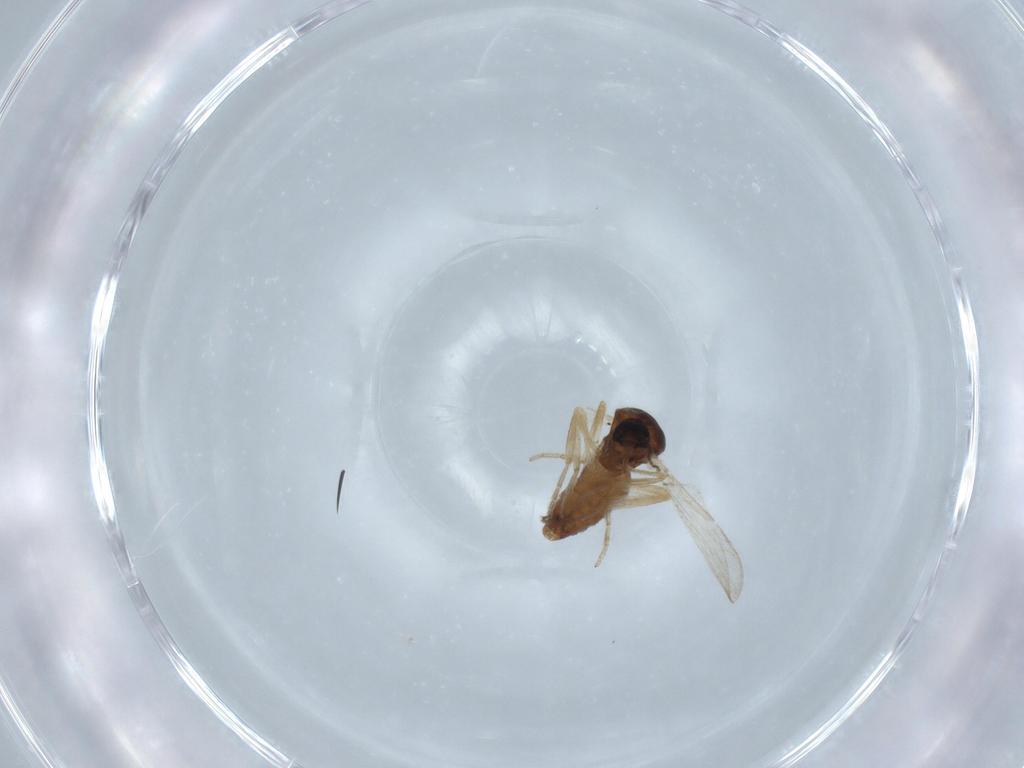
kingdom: Animalia
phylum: Arthropoda
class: Insecta
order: Diptera
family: Ceratopogonidae
